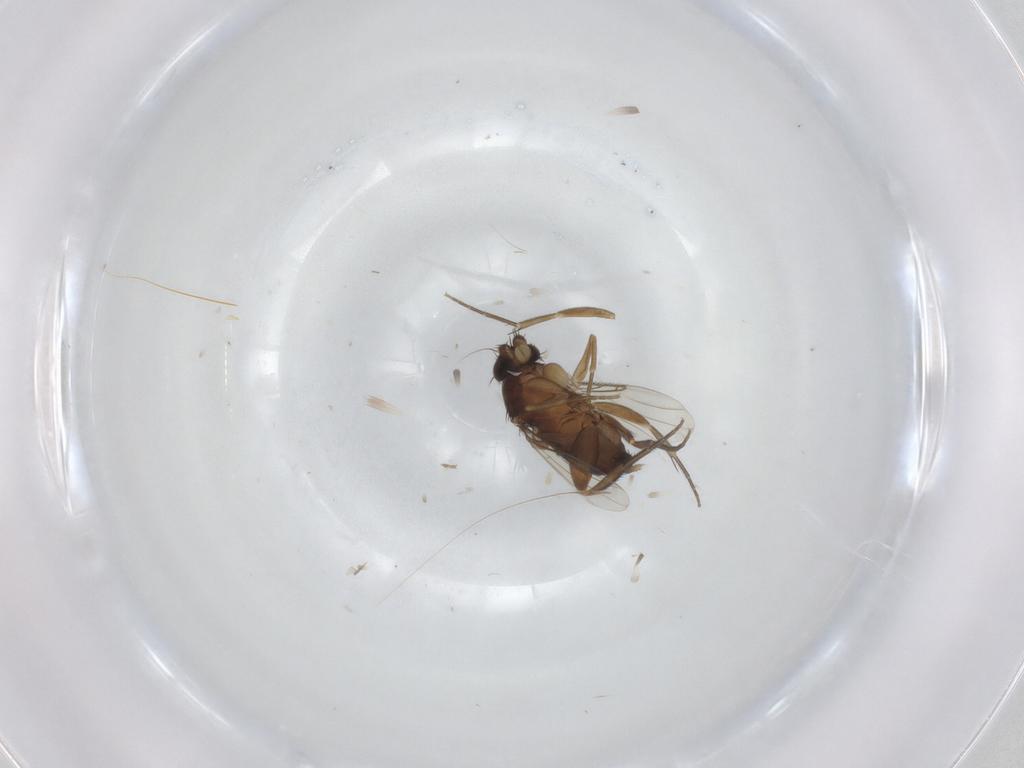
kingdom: Animalia
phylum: Arthropoda
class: Insecta
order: Diptera
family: Phoridae
